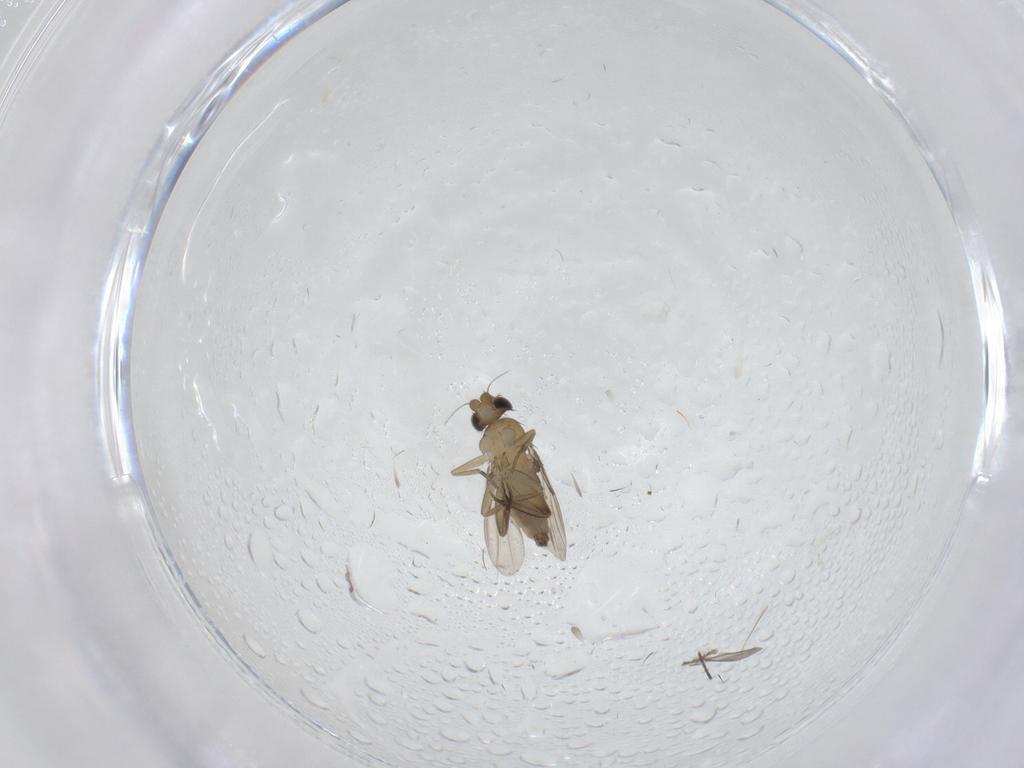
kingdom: Animalia
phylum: Arthropoda
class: Insecta
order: Diptera
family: Phoridae
